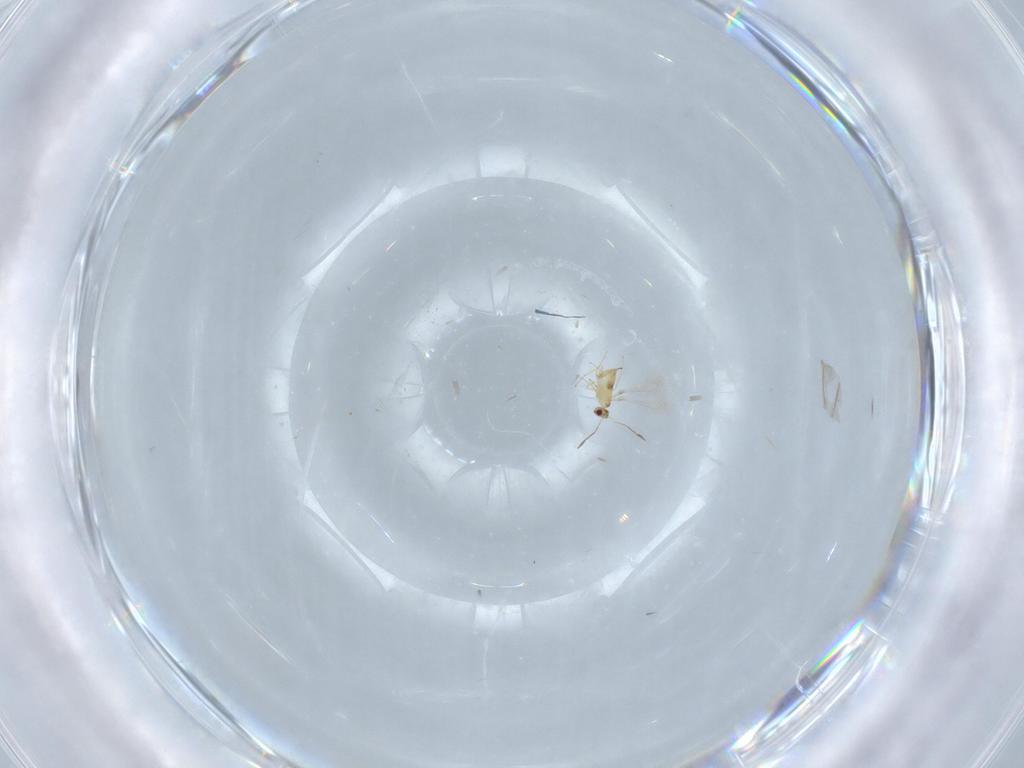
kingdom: Animalia
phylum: Arthropoda
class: Insecta
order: Hymenoptera
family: Mymaridae
